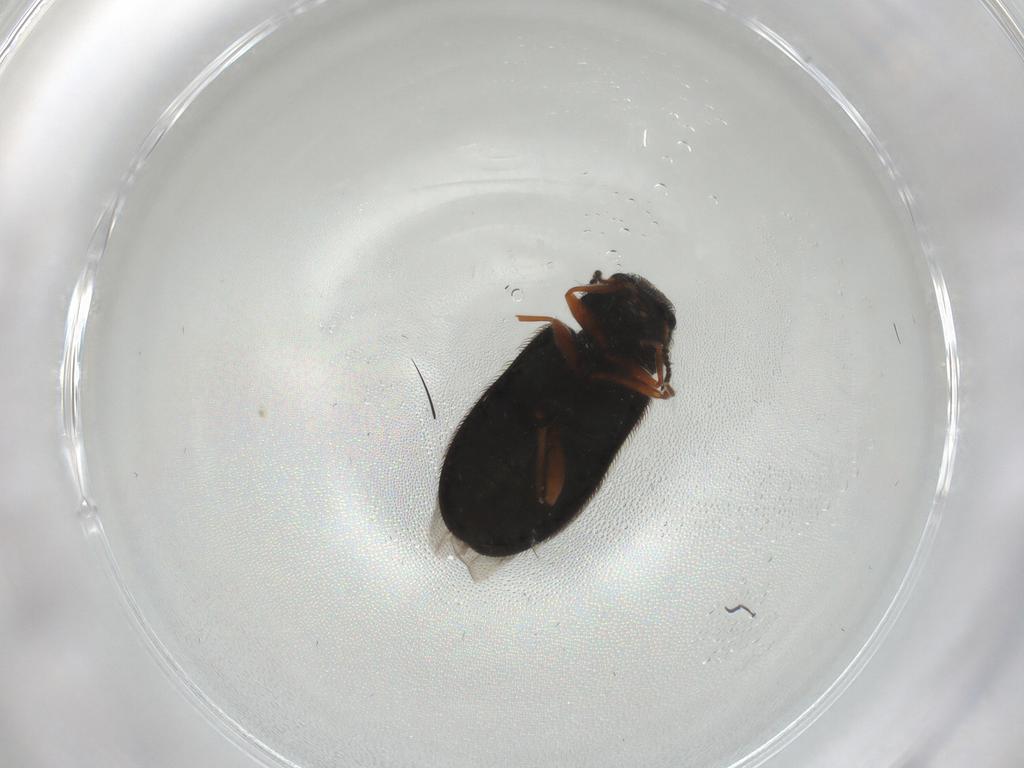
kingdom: Animalia
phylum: Arthropoda
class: Insecta
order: Coleoptera
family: Melyridae
